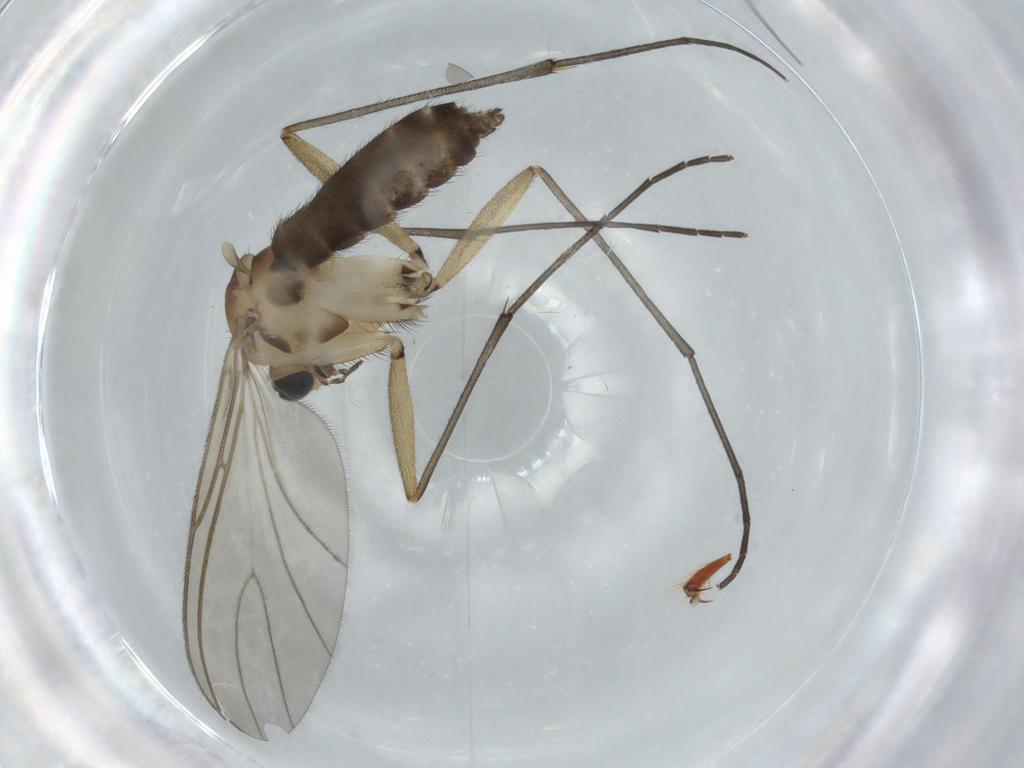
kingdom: Animalia
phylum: Arthropoda
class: Insecta
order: Diptera
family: Sciaridae
